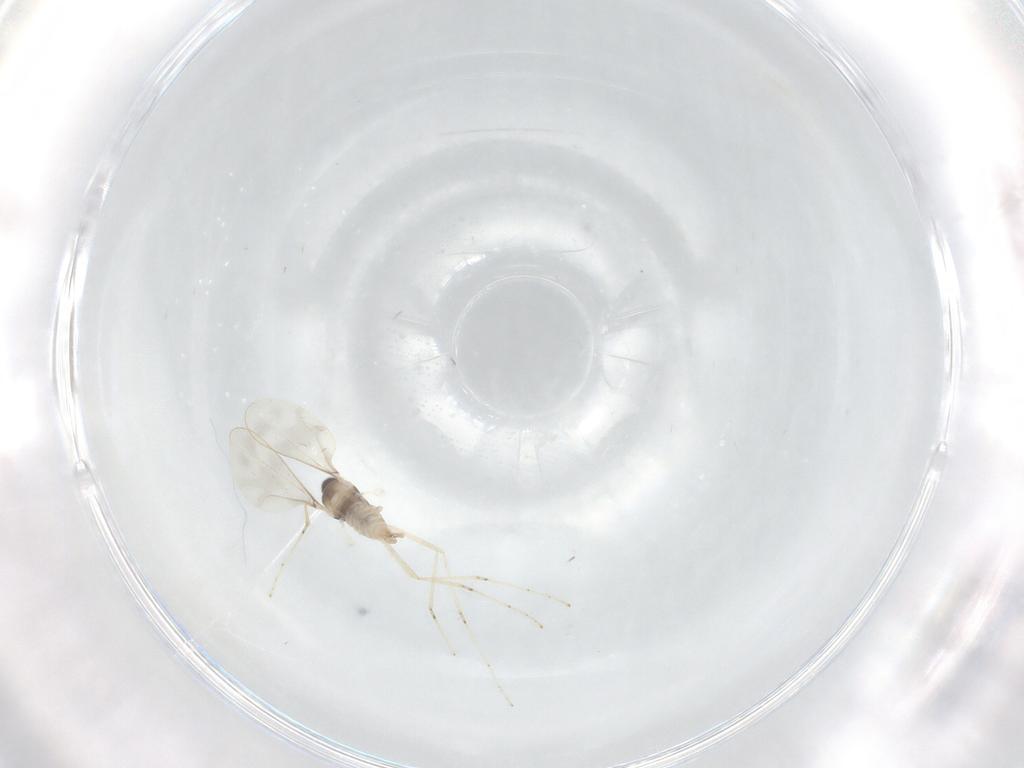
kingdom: Animalia
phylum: Arthropoda
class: Insecta
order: Diptera
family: Cecidomyiidae
